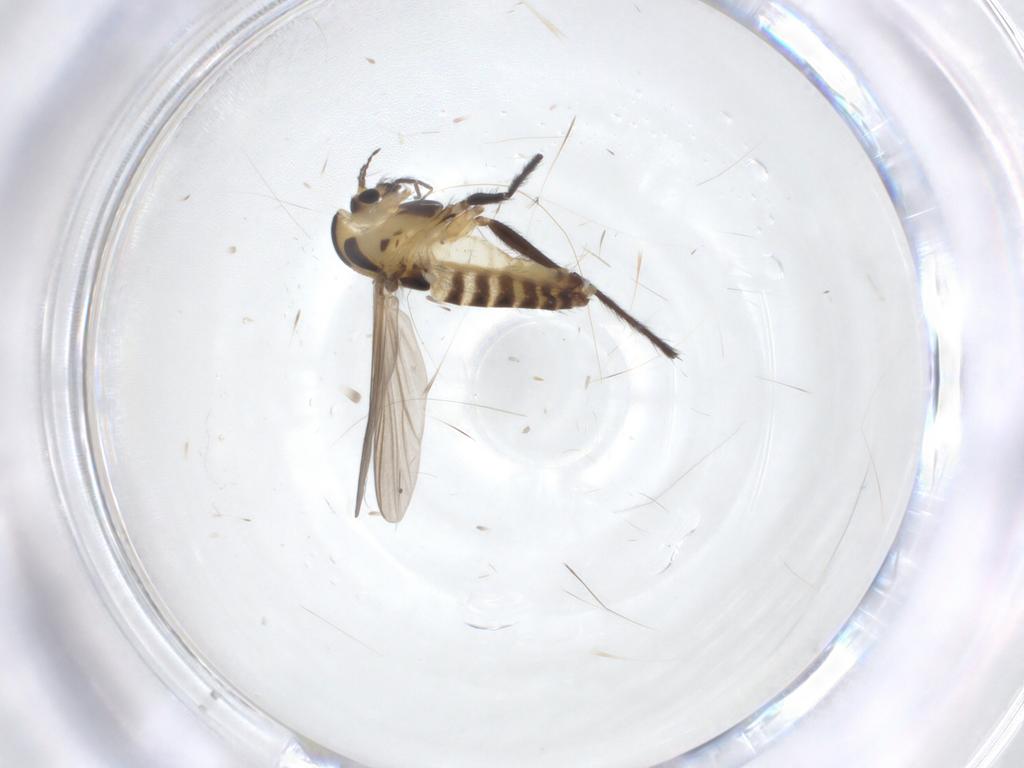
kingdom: Animalia
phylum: Arthropoda
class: Insecta
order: Diptera
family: Chironomidae
